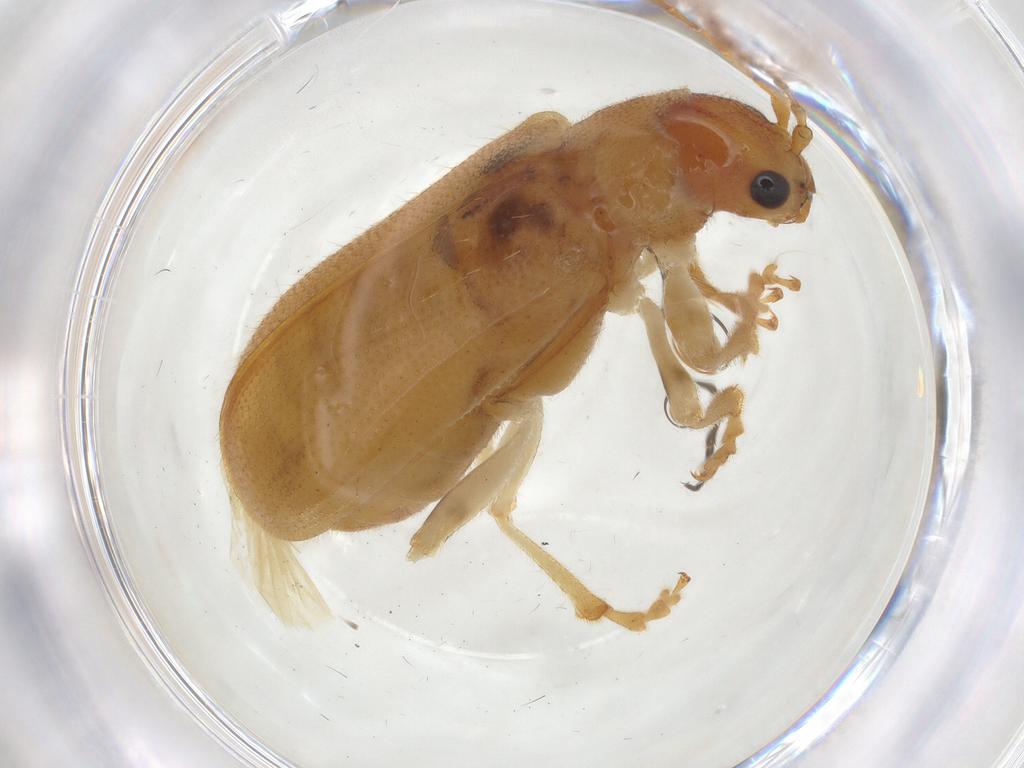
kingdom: Animalia
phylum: Arthropoda
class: Insecta
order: Coleoptera
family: Chrysomelidae
